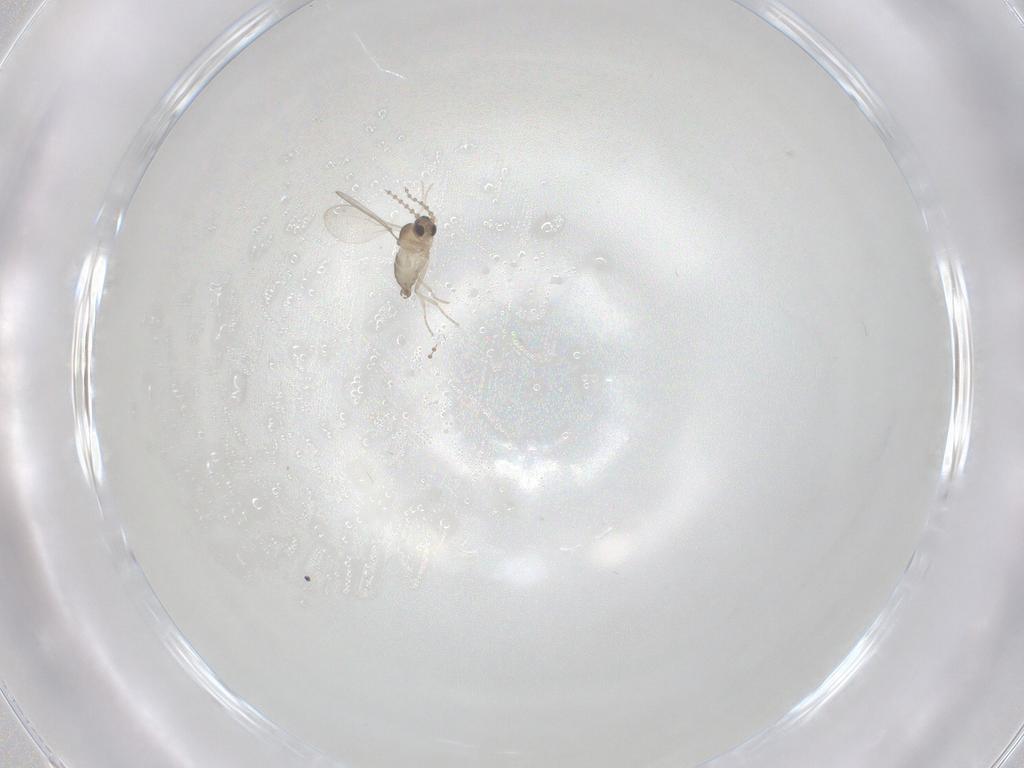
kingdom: Animalia
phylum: Arthropoda
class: Insecta
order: Diptera
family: Cecidomyiidae
